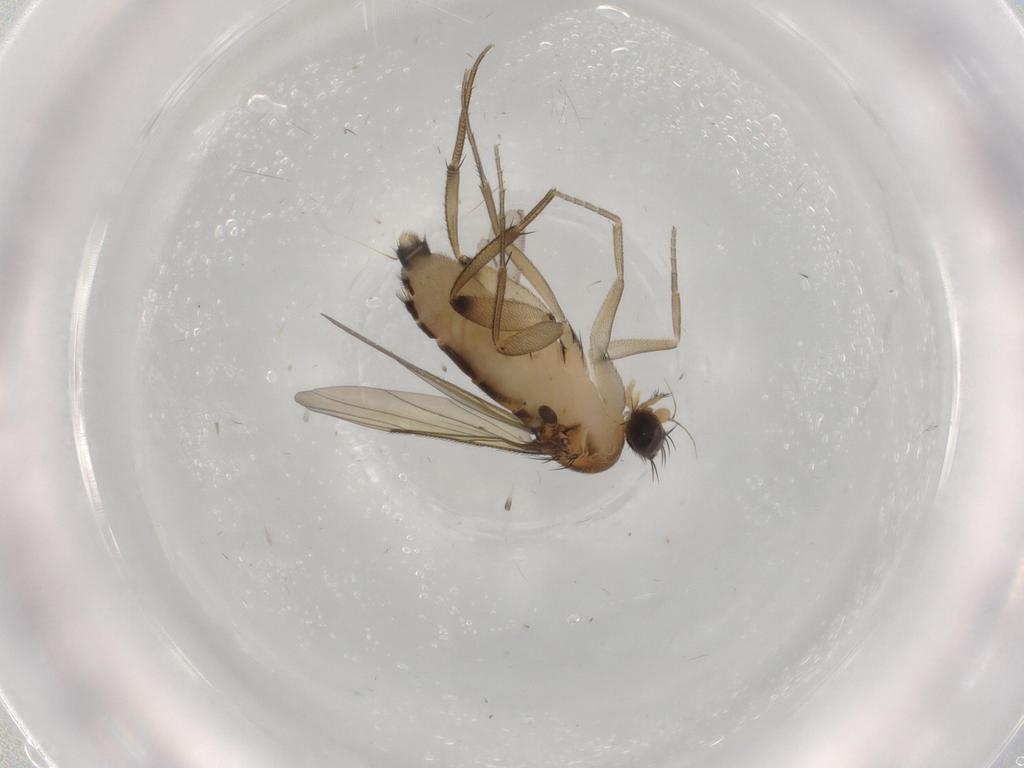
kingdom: Animalia
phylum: Arthropoda
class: Insecta
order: Diptera
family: Phoridae
